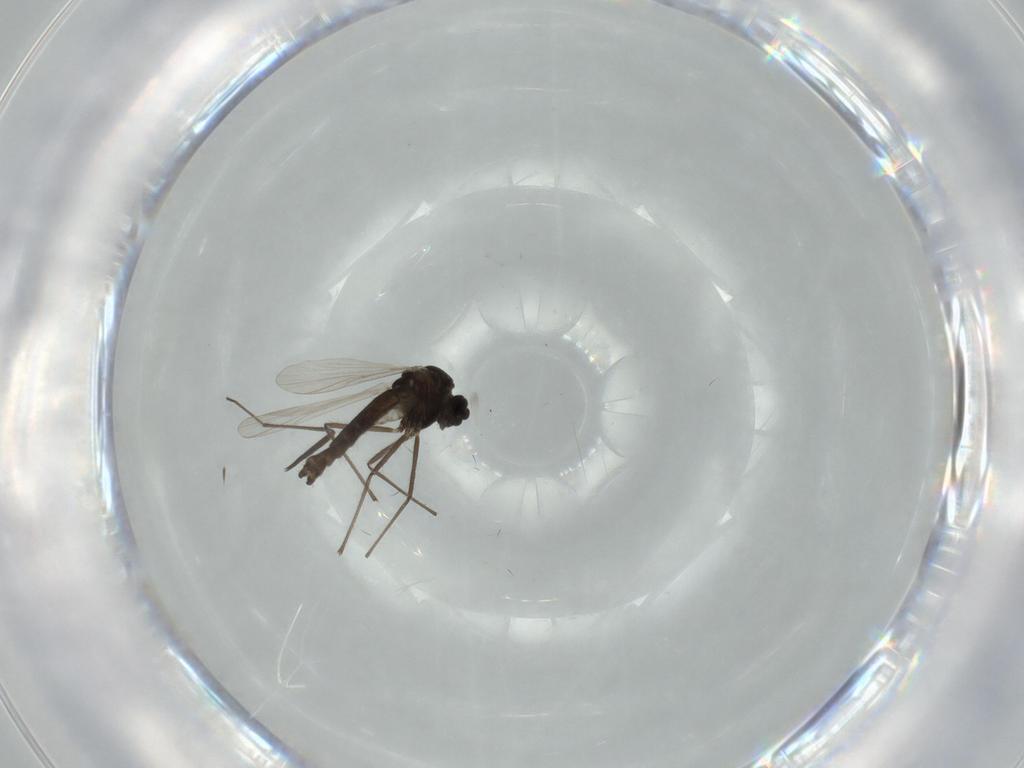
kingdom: Animalia
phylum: Arthropoda
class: Insecta
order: Diptera
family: Chironomidae
